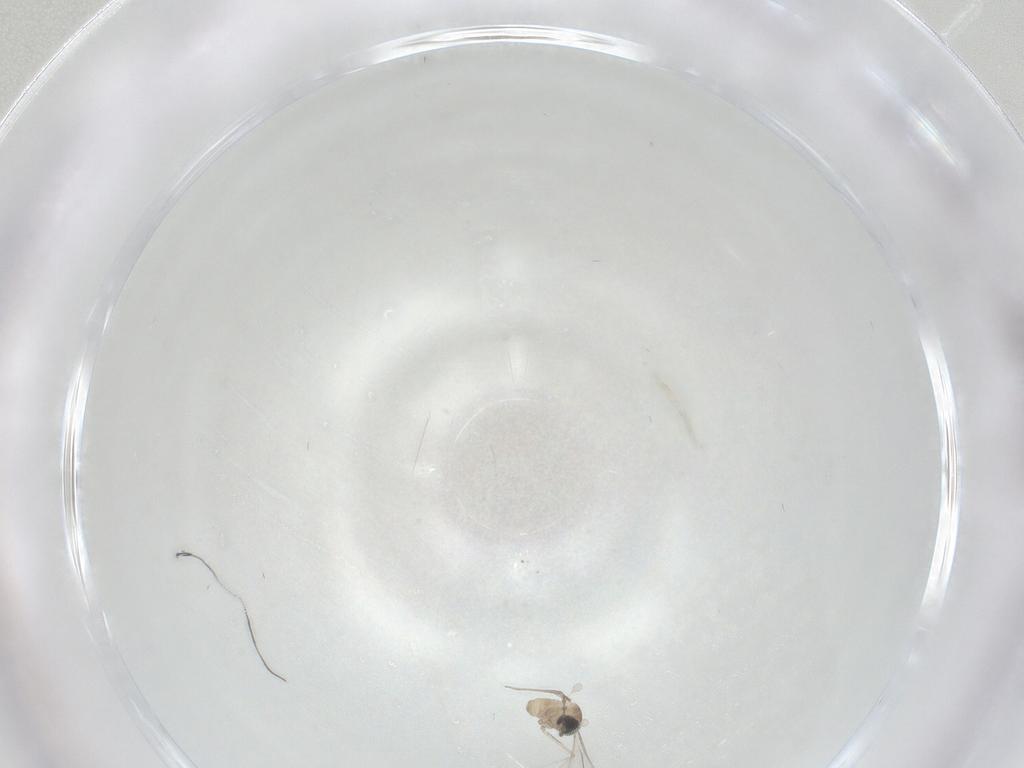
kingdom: Animalia
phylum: Arthropoda
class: Insecta
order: Diptera
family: Cecidomyiidae
